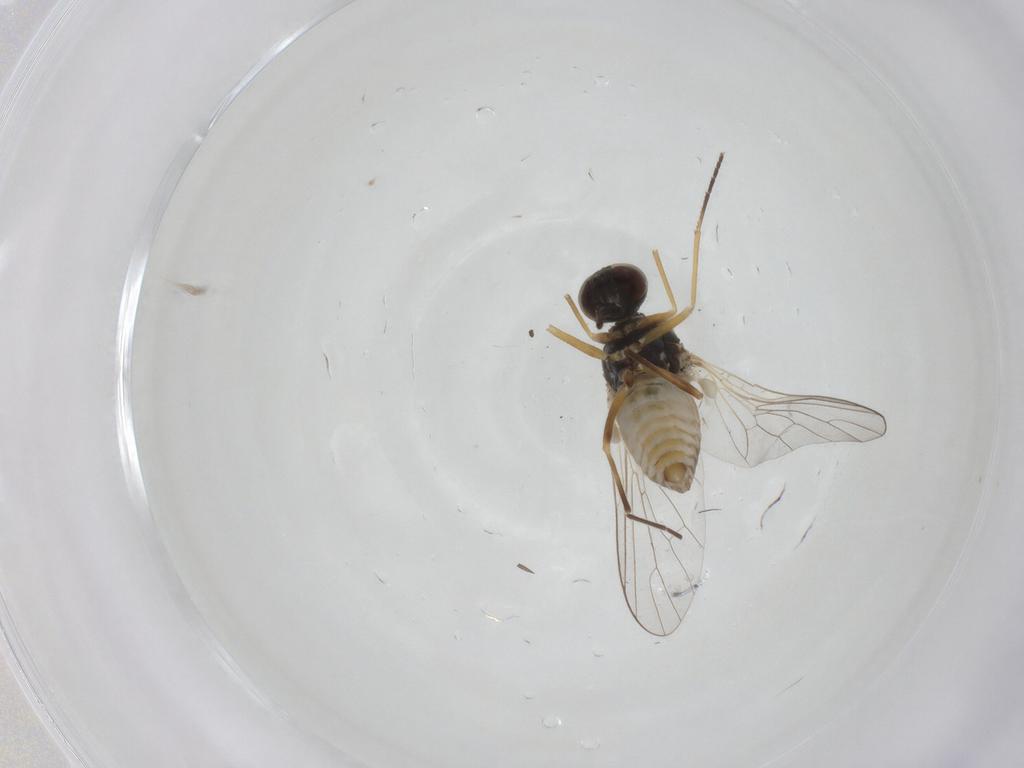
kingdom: Animalia
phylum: Arthropoda
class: Insecta
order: Diptera
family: Bombyliidae
